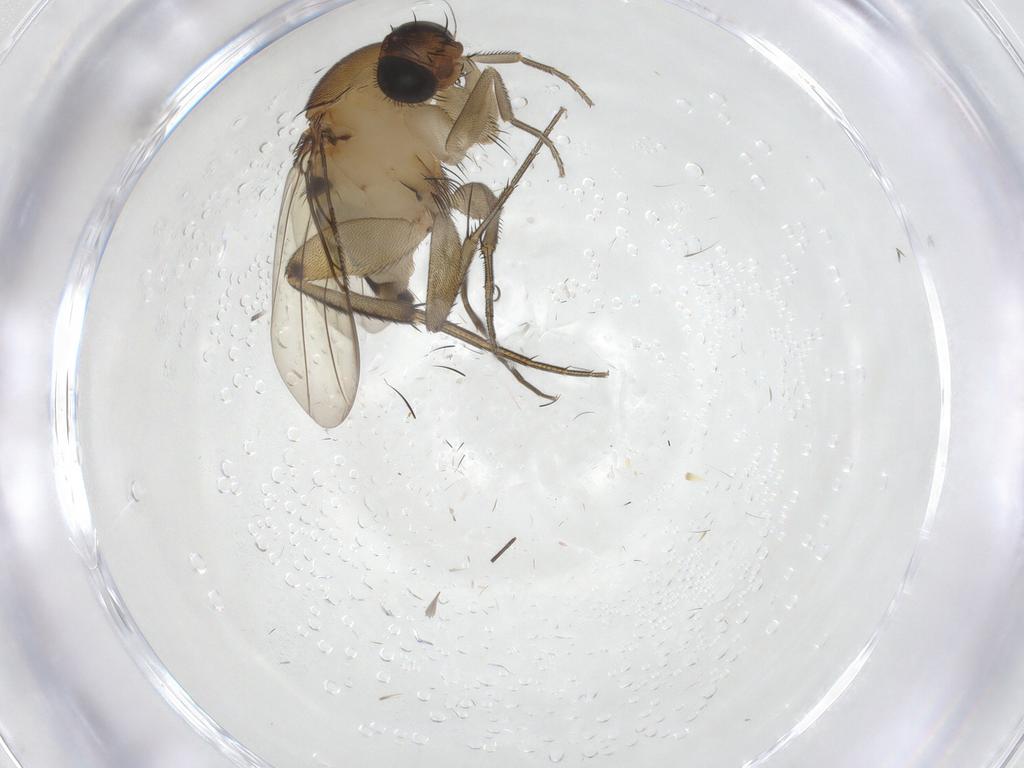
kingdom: Animalia
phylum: Arthropoda
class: Insecta
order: Diptera
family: Phoridae
